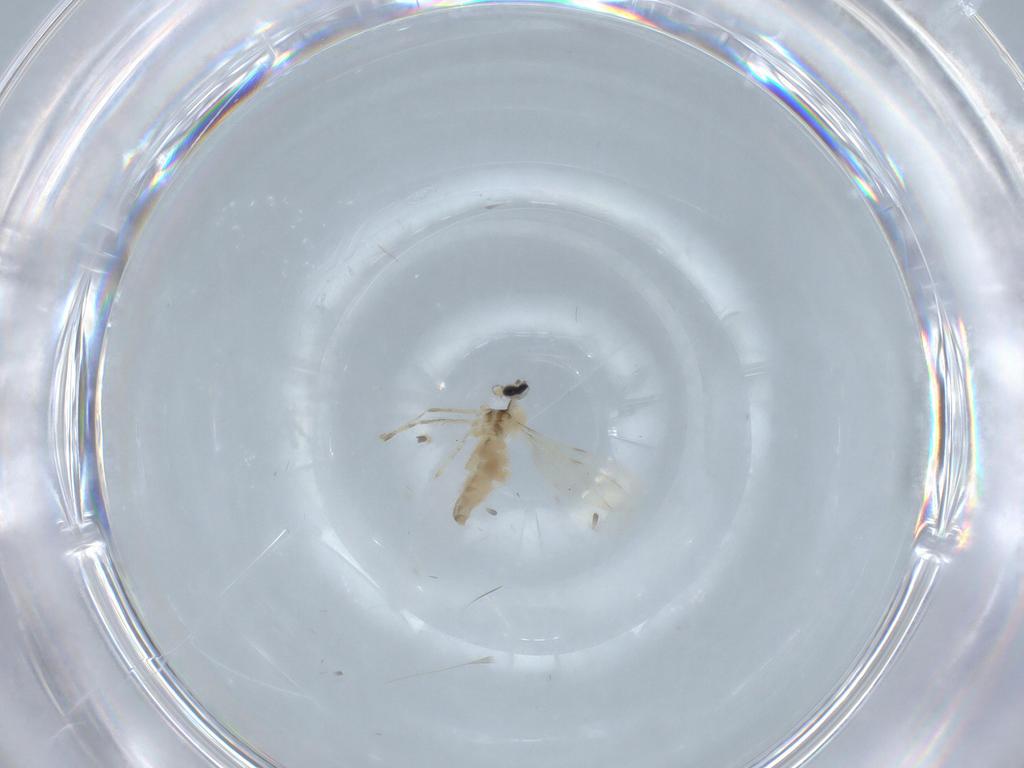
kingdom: Animalia
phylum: Arthropoda
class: Insecta
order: Diptera
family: Cecidomyiidae
